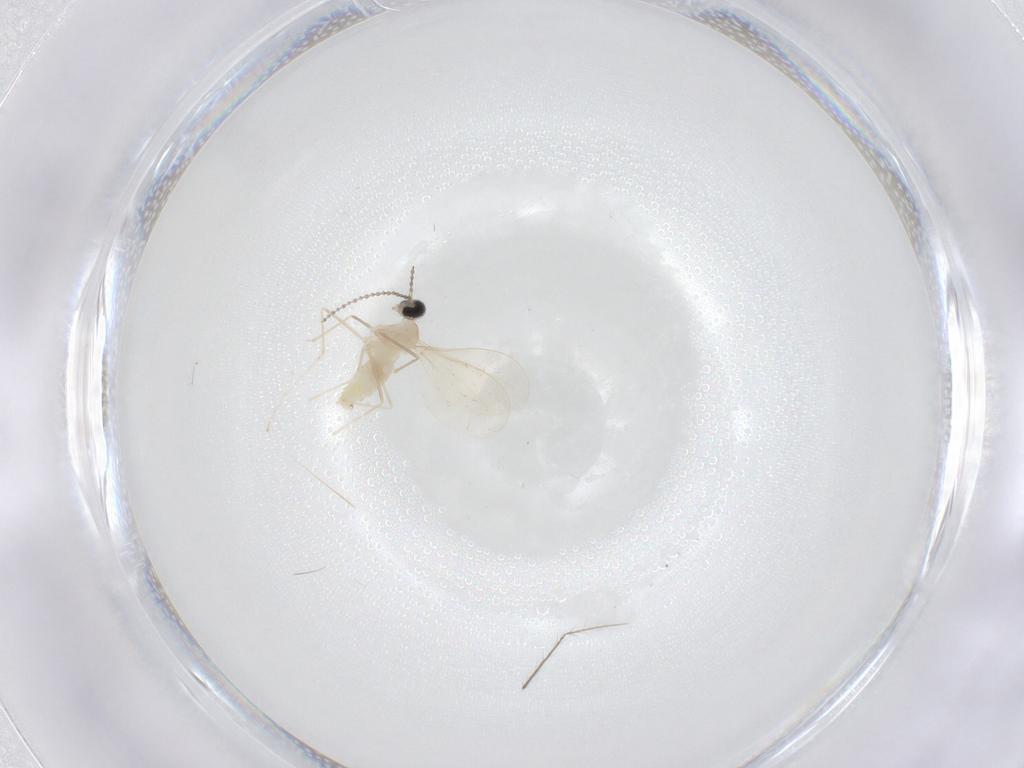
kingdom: Animalia
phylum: Arthropoda
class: Insecta
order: Diptera
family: Cecidomyiidae
